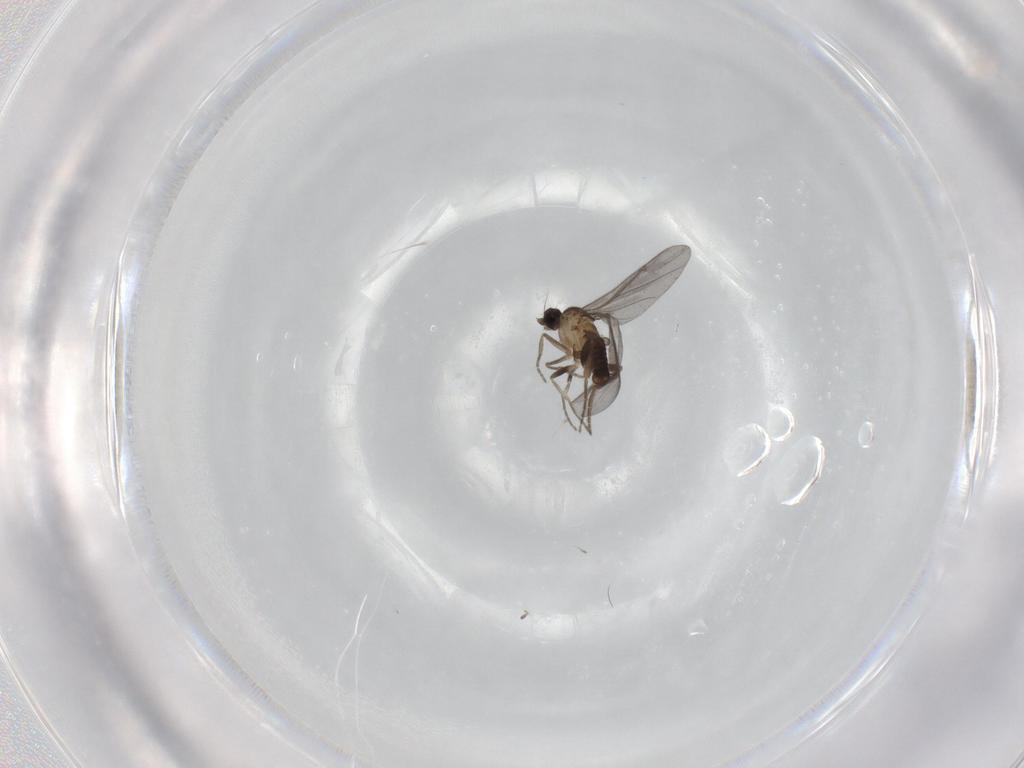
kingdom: Animalia
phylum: Arthropoda
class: Insecta
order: Diptera
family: Phoridae
